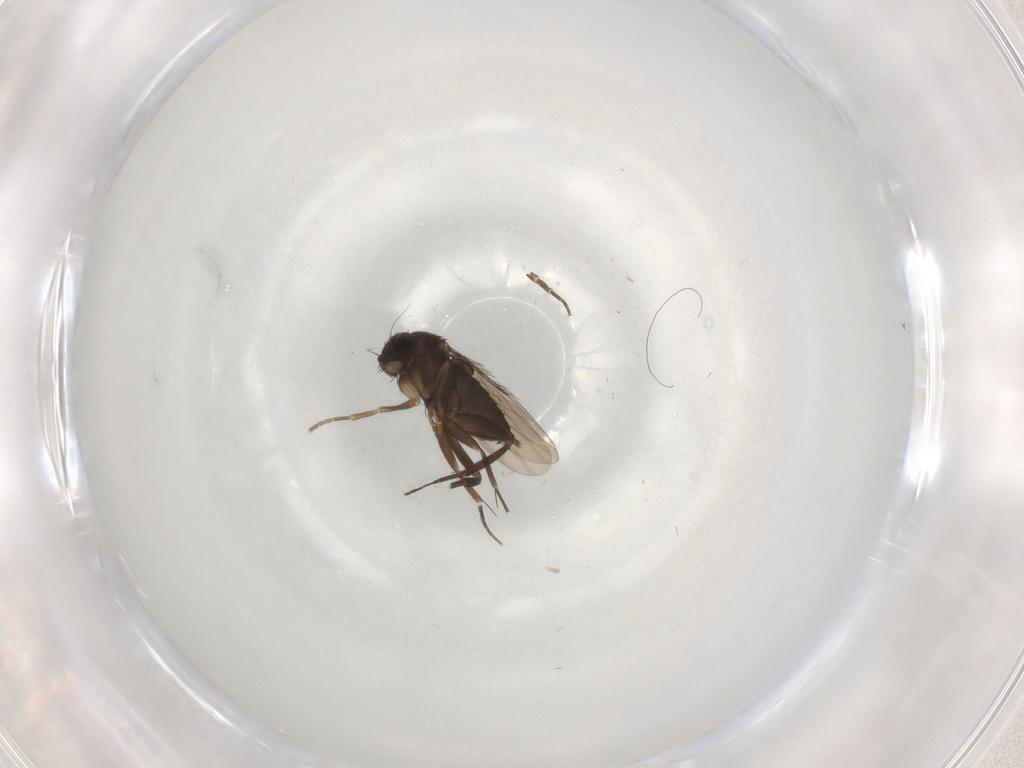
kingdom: Animalia
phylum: Arthropoda
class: Insecta
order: Diptera
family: Phoridae
